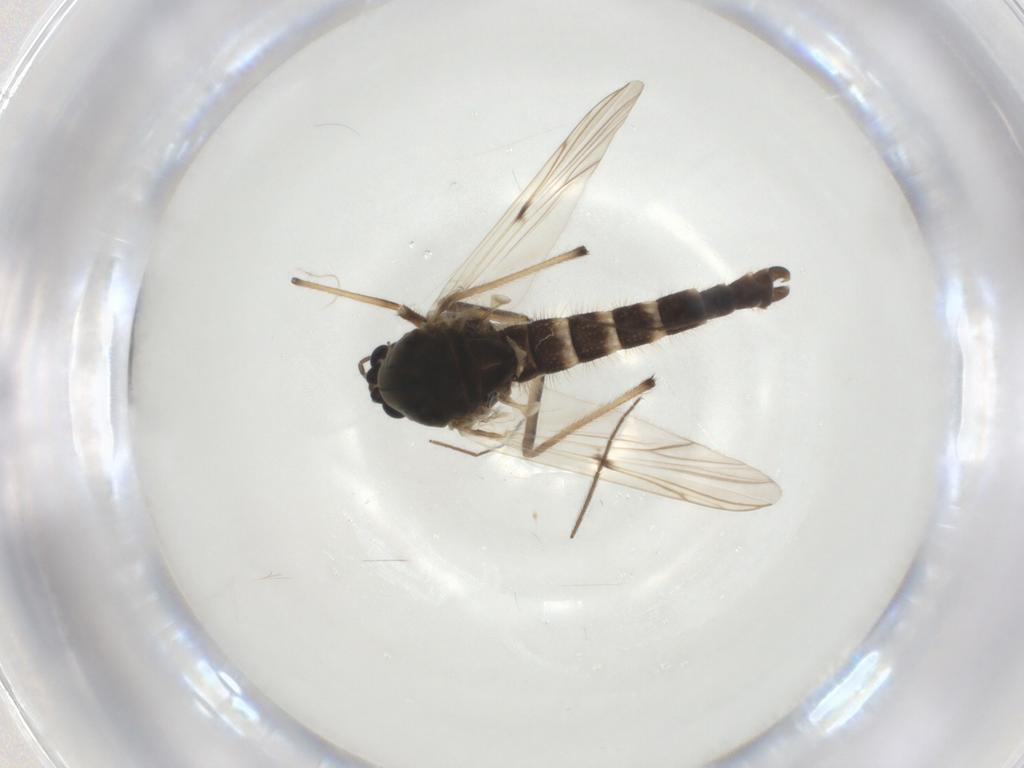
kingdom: Animalia
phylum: Arthropoda
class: Insecta
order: Diptera
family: Chironomidae
